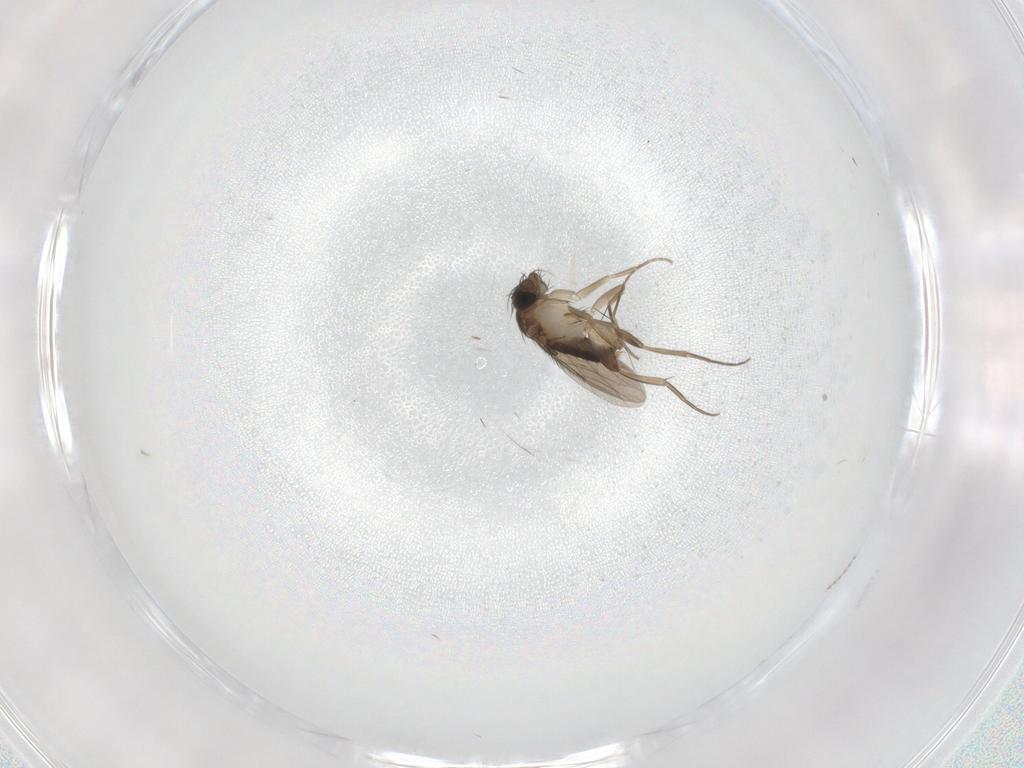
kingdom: Animalia
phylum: Arthropoda
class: Insecta
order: Diptera
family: Phoridae
